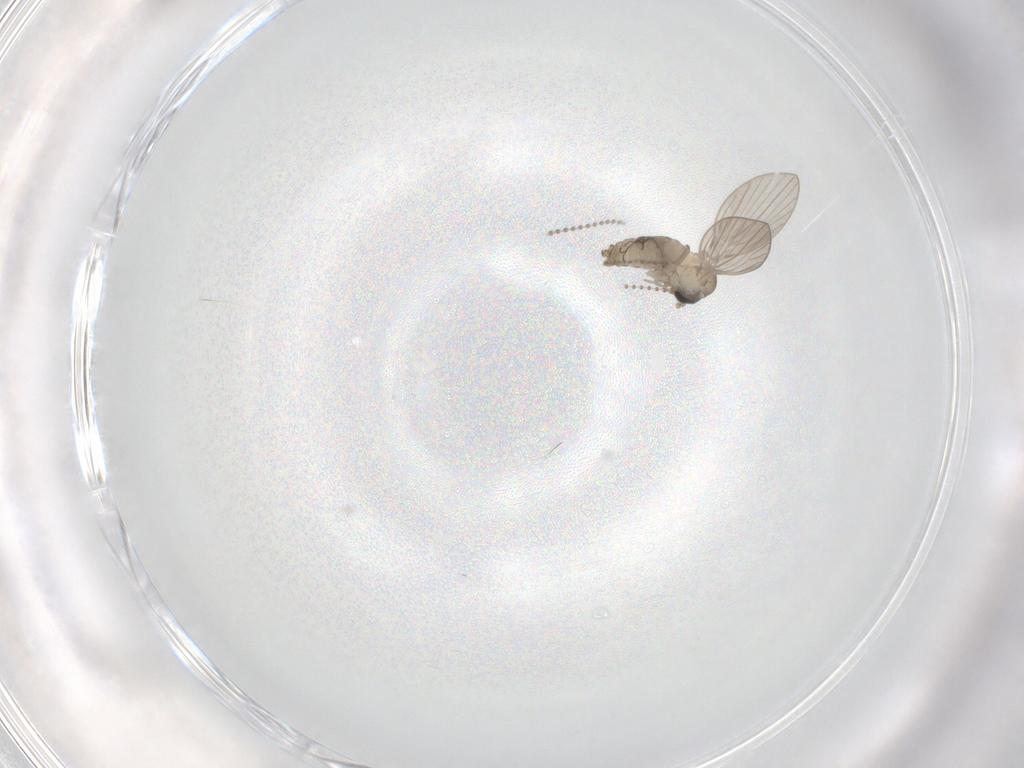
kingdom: Animalia
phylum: Arthropoda
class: Insecta
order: Diptera
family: Psychodidae
